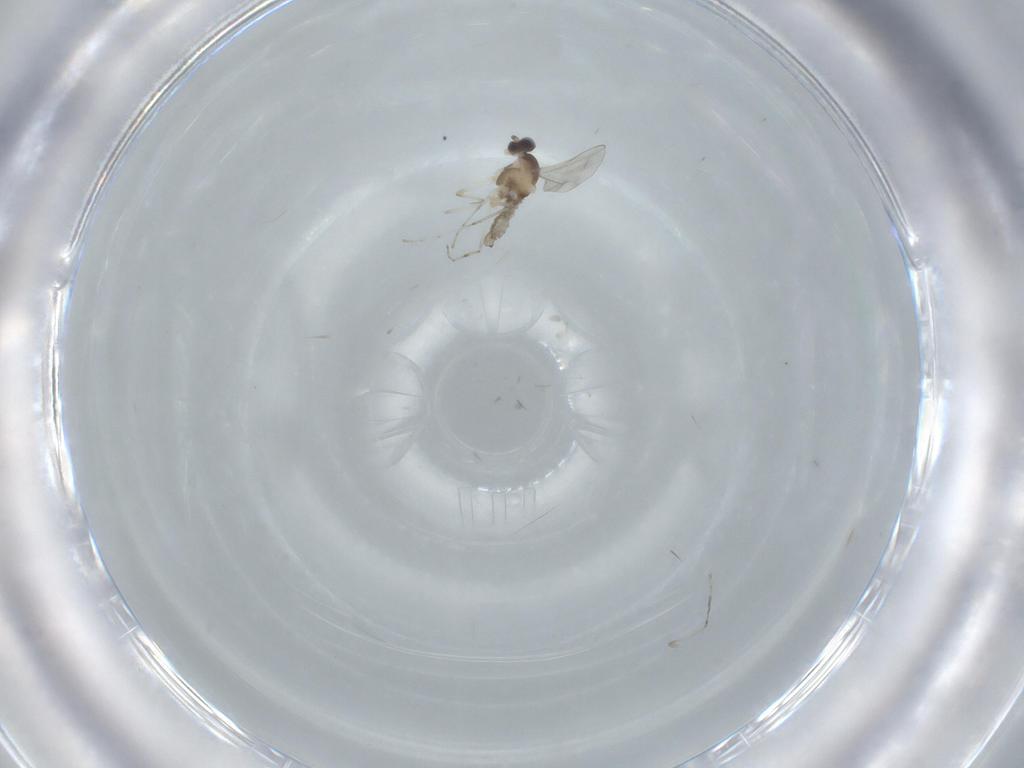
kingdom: Animalia
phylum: Arthropoda
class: Insecta
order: Diptera
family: Cecidomyiidae
